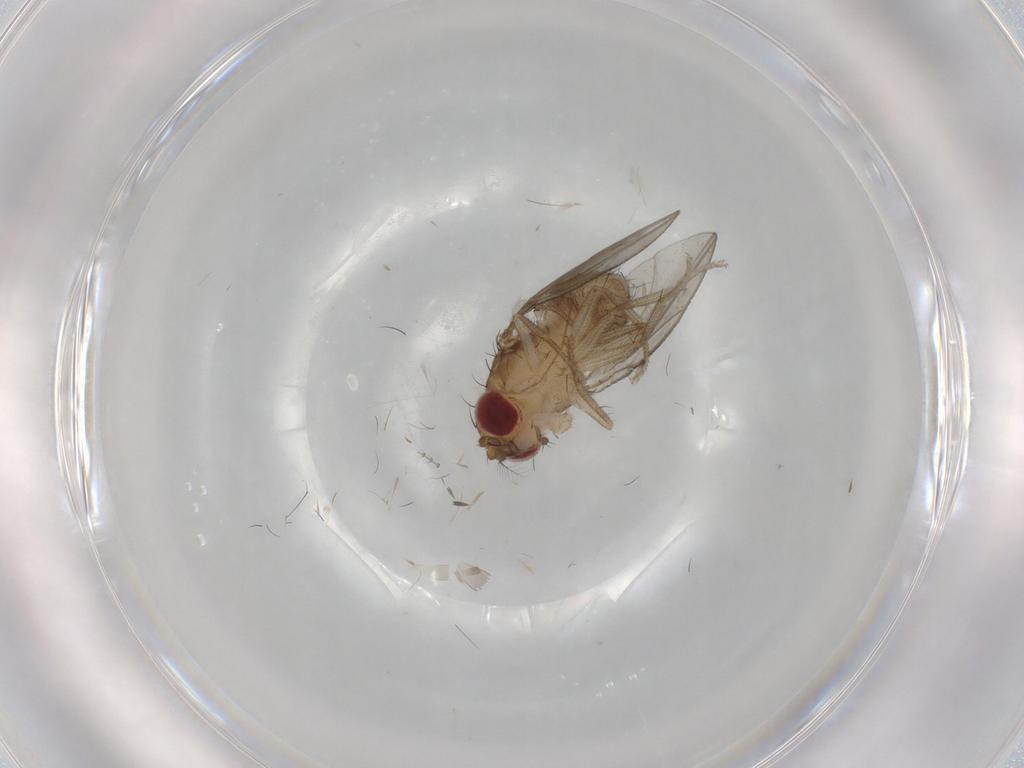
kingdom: Animalia
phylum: Arthropoda
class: Insecta
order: Diptera
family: Drosophilidae
